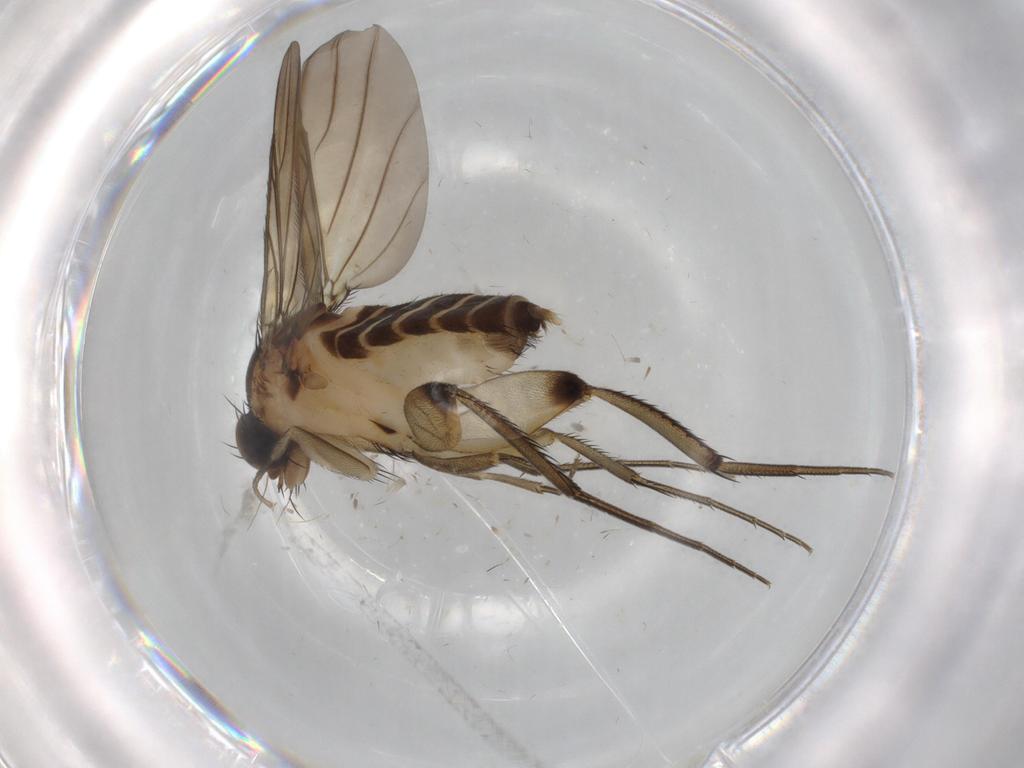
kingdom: Animalia
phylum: Arthropoda
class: Insecta
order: Diptera
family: Phoridae
